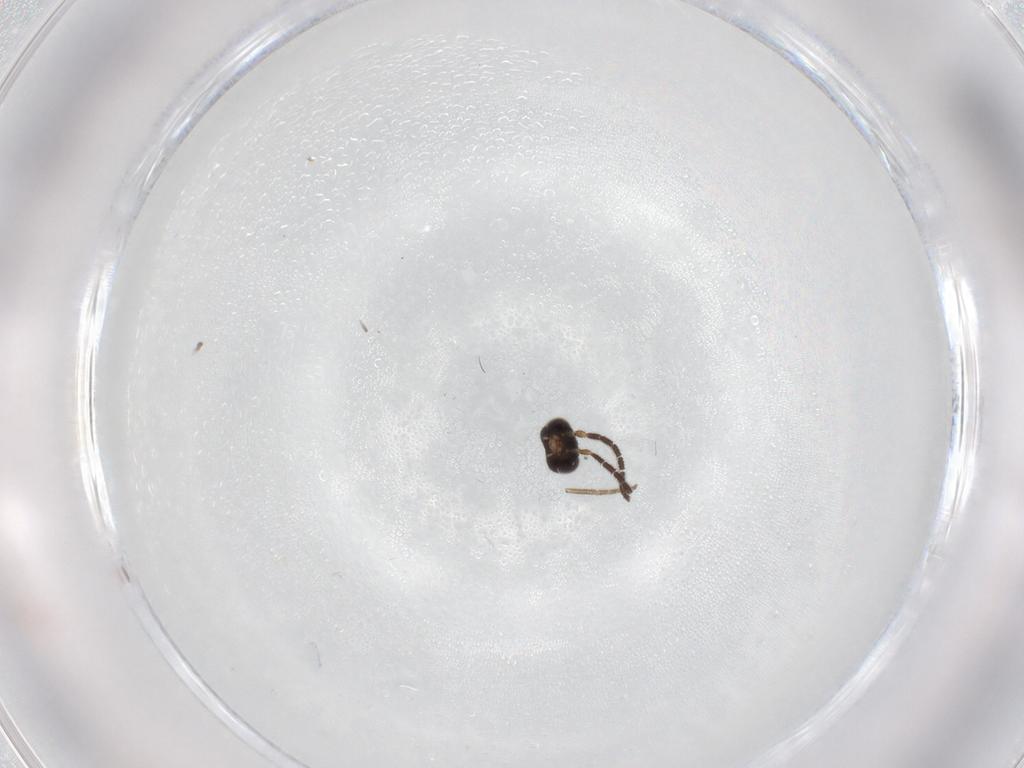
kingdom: Animalia
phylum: Arthropoda
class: Insecta
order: Hymenoptera
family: Dryinidae
